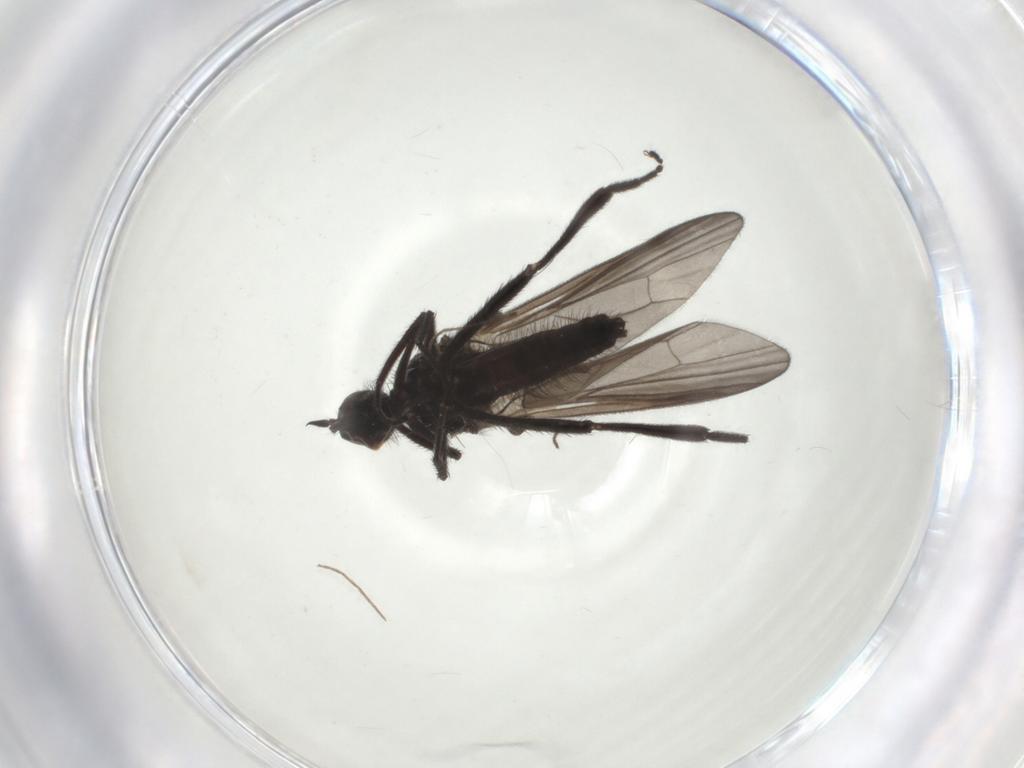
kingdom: Animalia
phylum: Arthropoda
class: Insecta
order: Diptera
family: Hybotidae
